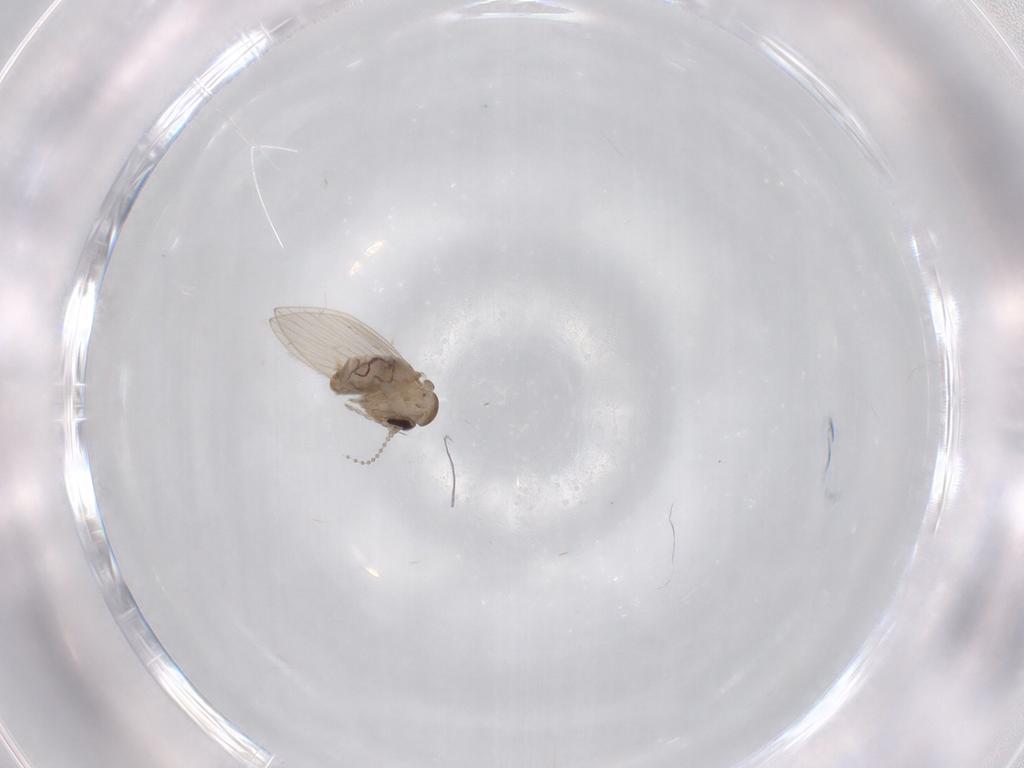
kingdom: Animalia
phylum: Arthropoda
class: Insecta
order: Diptera
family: Psychodidae
